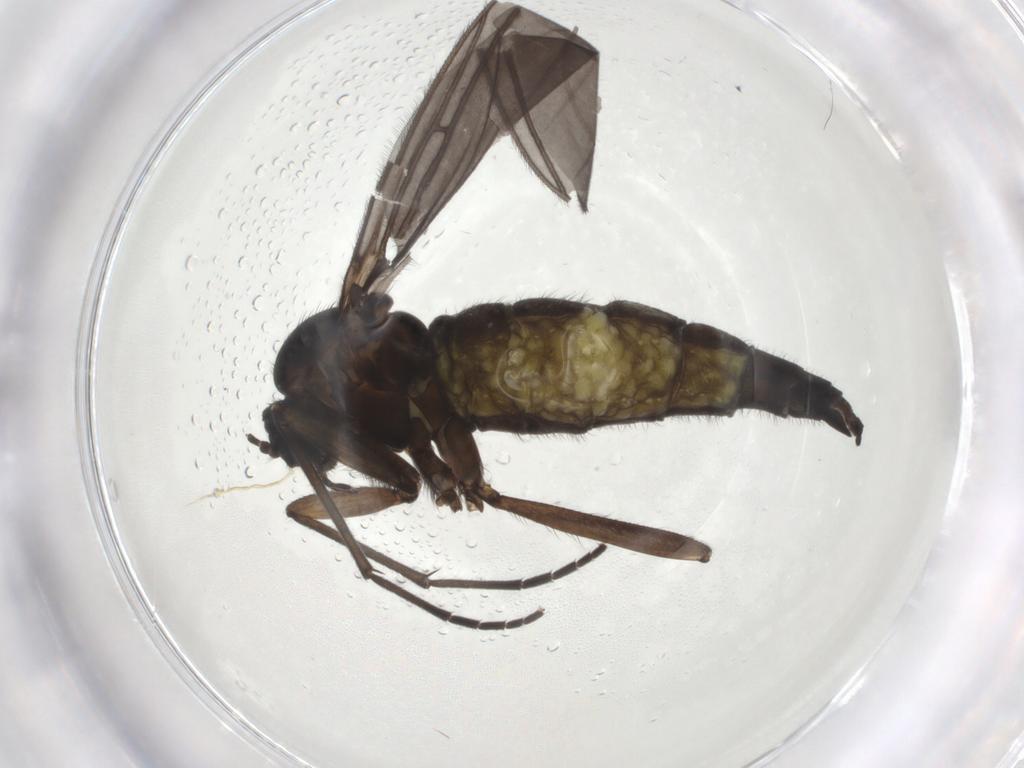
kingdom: Animalia
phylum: Arthropoda
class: Insecta
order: Diptera
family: Sciaridae
